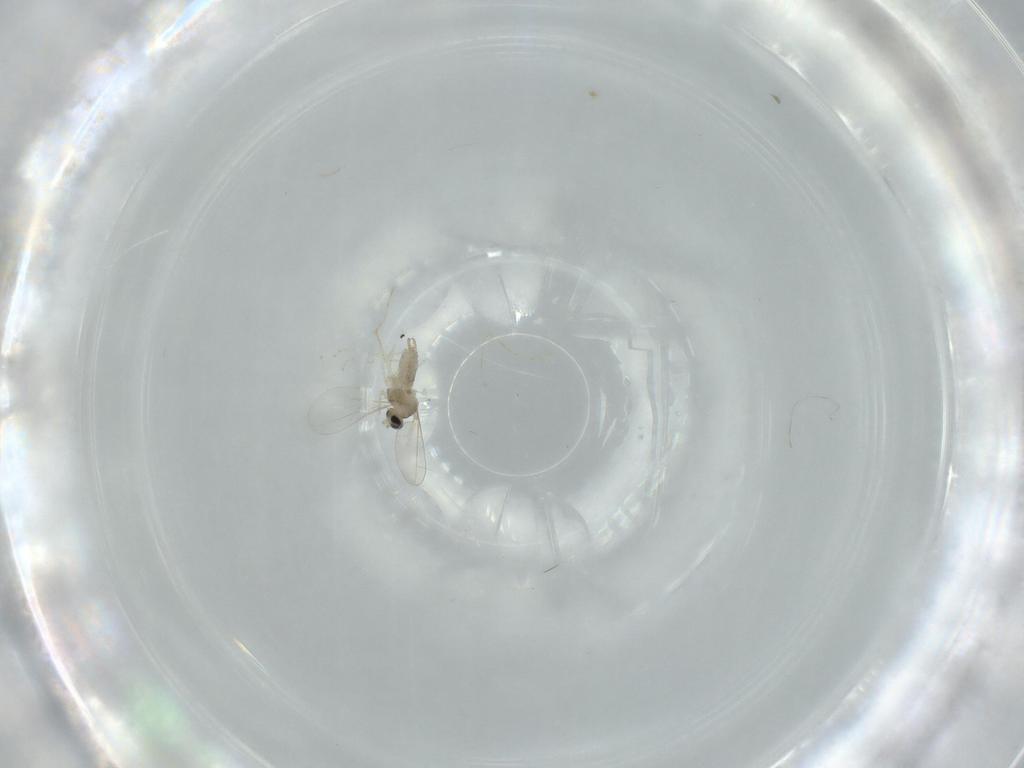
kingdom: Animalia
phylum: Arthropoda
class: Insecta
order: Diptera
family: Cecidomyiidae
